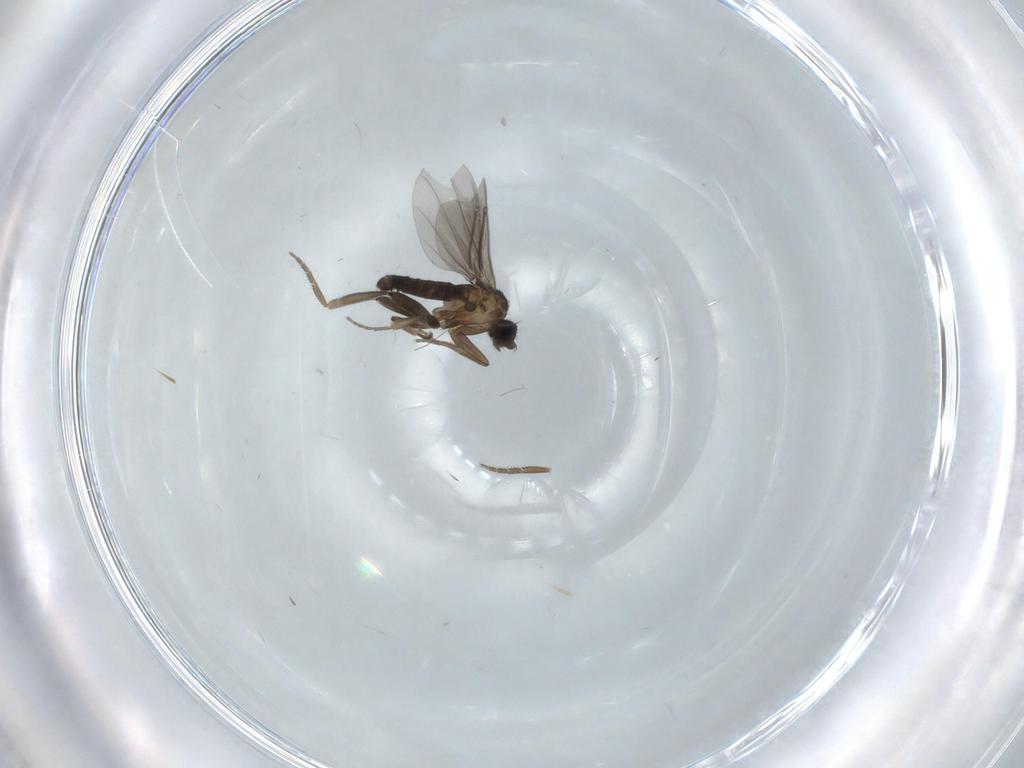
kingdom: Animalia
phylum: Arthropoda
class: Insecta
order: Diptera
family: Phoridae
